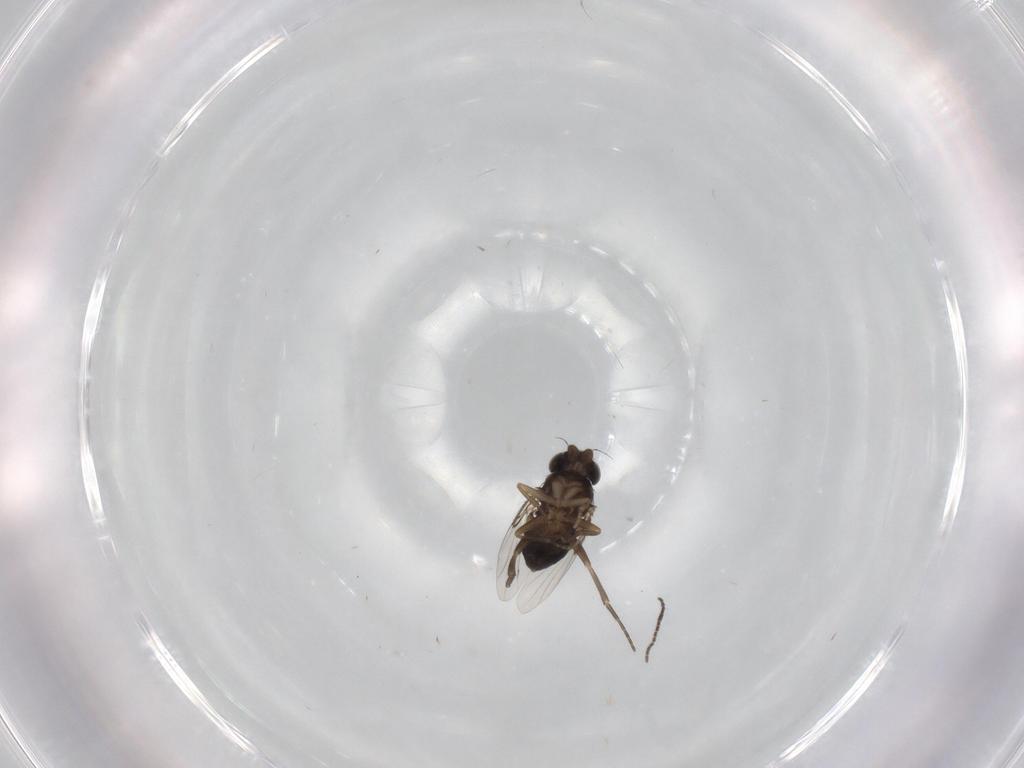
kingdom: Animalia
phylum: Arthropoda
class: Insecta
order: Diptera
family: Phoridae
